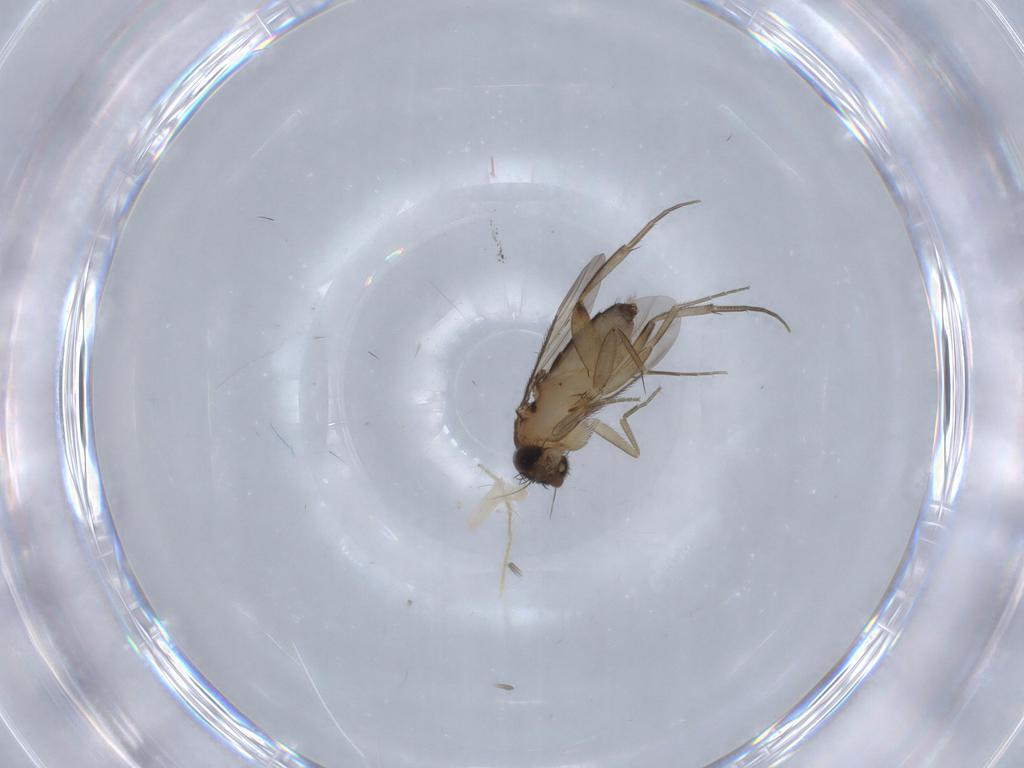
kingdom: Animalia
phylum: Arthropoda
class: Insecta
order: Diptera
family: Phoridae
